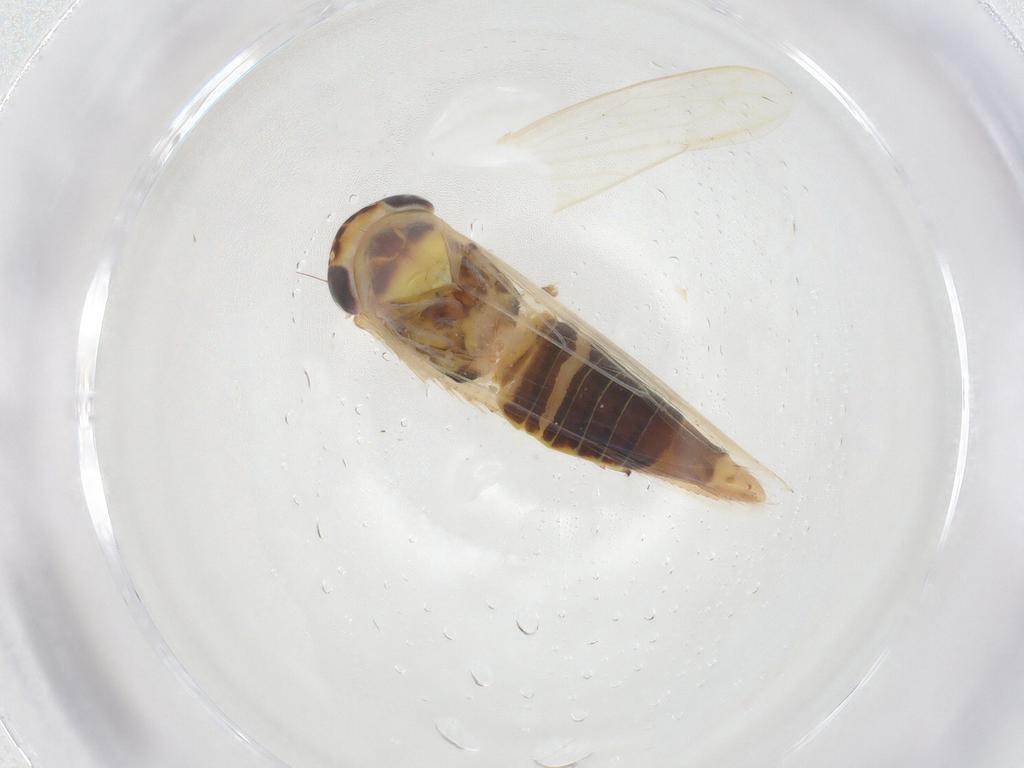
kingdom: Animalia
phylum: Arthropoda
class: Insecta
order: Hemiptera
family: Cicadellidae
